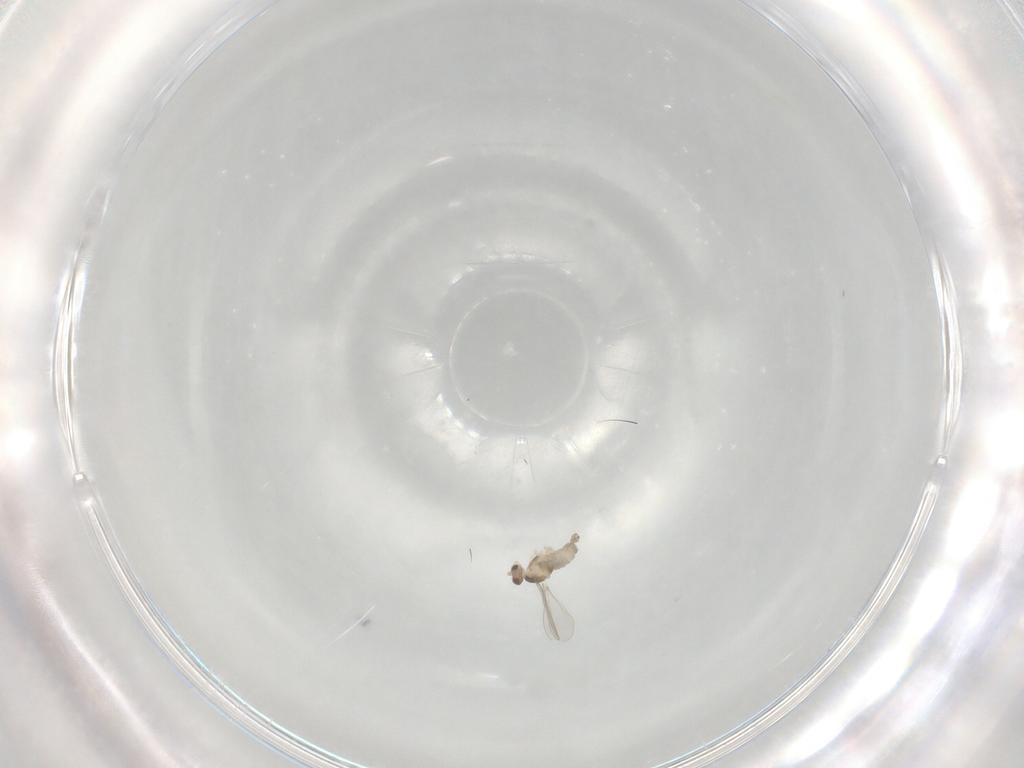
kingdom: Animalia
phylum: Arthropoda
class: Insecta
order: Diptera
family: Cecidomyiidae
